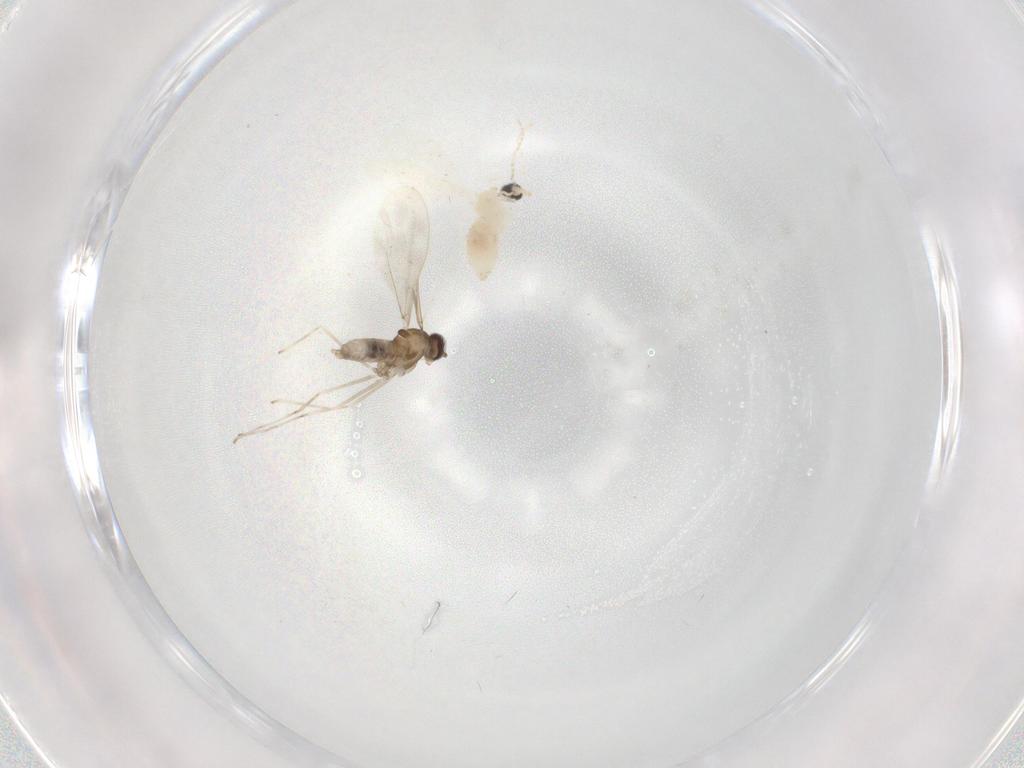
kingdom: Animalia
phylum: Arthropoda
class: Insecta
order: Diptera
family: Cecidomyiidae
